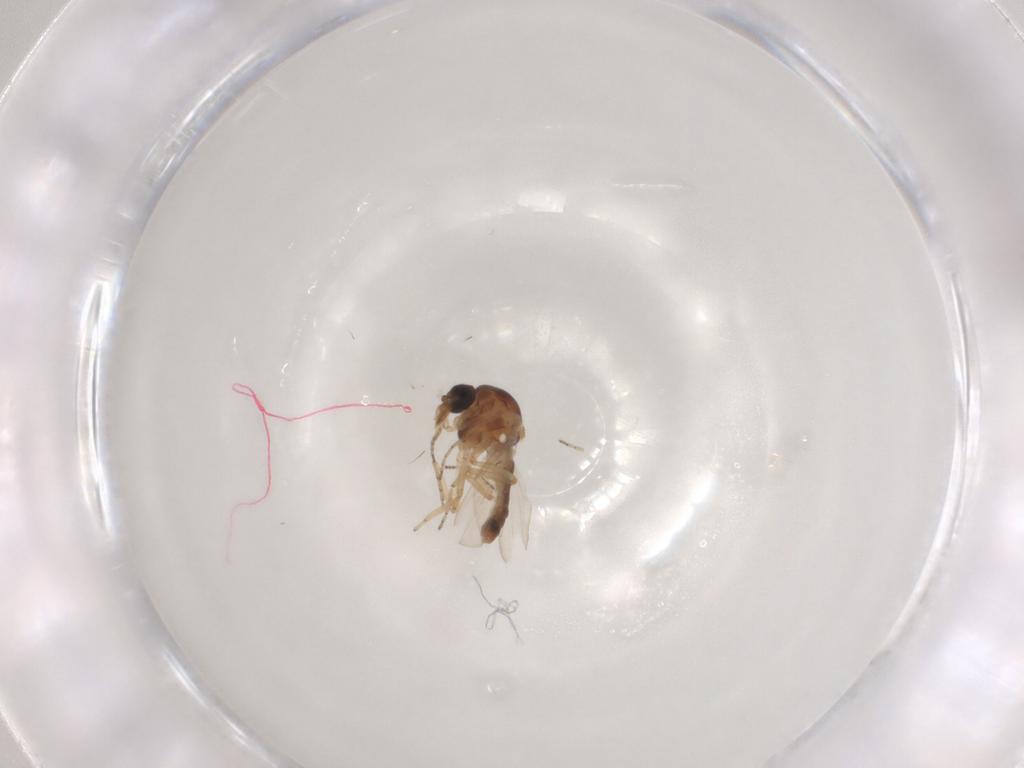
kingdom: Animalia
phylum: Arthropoda
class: Insecta
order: Diptera
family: Ceratopogonidae
